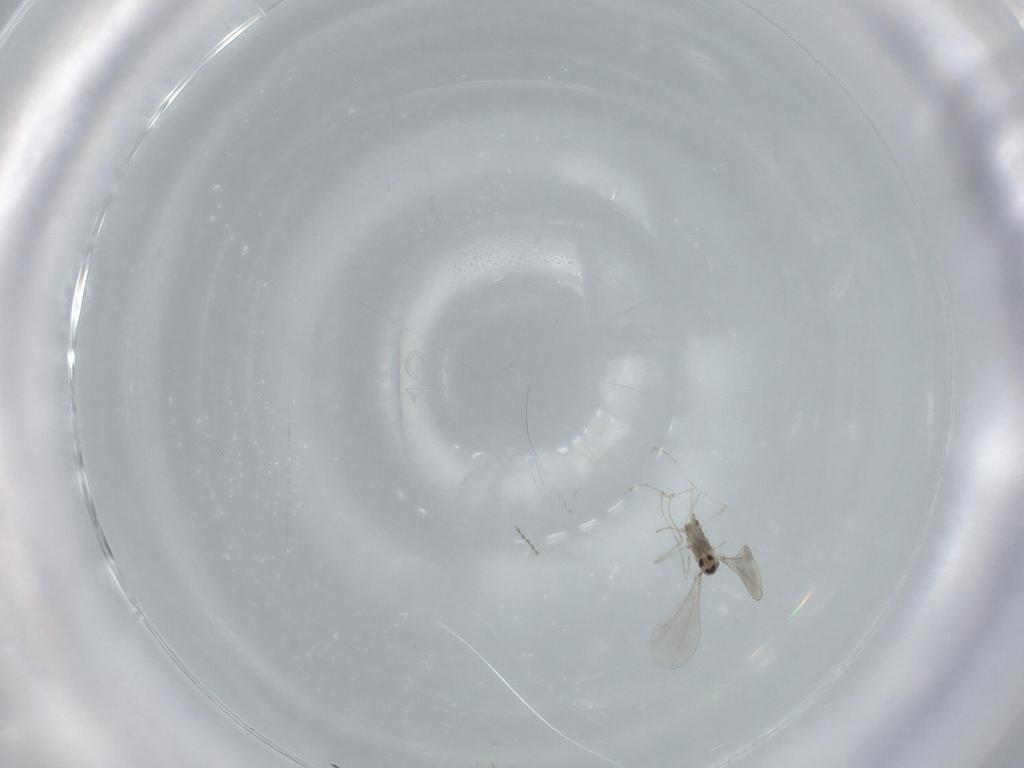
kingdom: Animalia
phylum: Arthropoda
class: Insecta
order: Diptera
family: Cecidomyiidae
